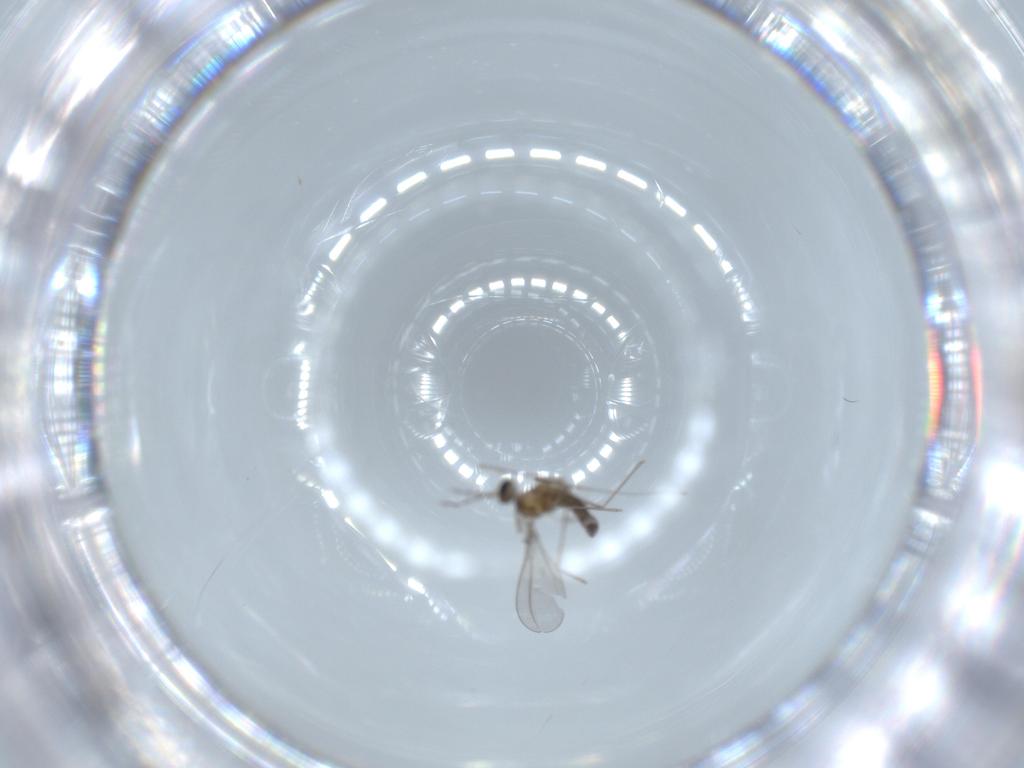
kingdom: Animalia
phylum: Arthropoda
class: Insecta
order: Diptera
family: Cecidomyiidae
